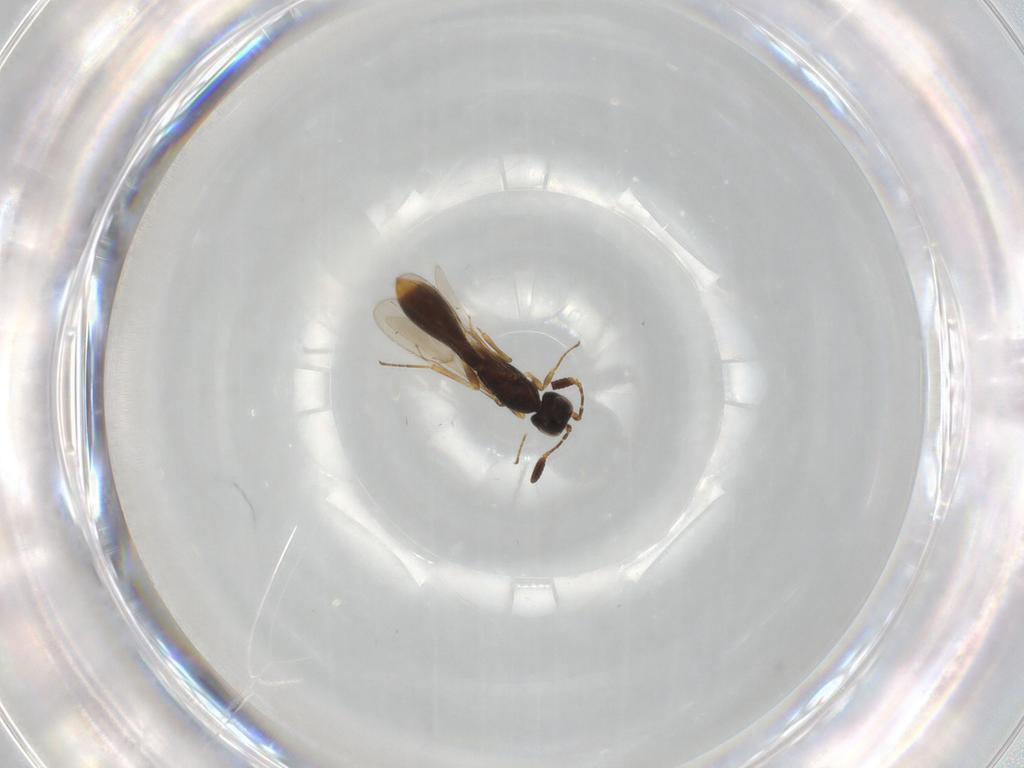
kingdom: Animalia
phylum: Arthropoda
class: Insecta
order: Hymenoptera
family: Scelionidae
